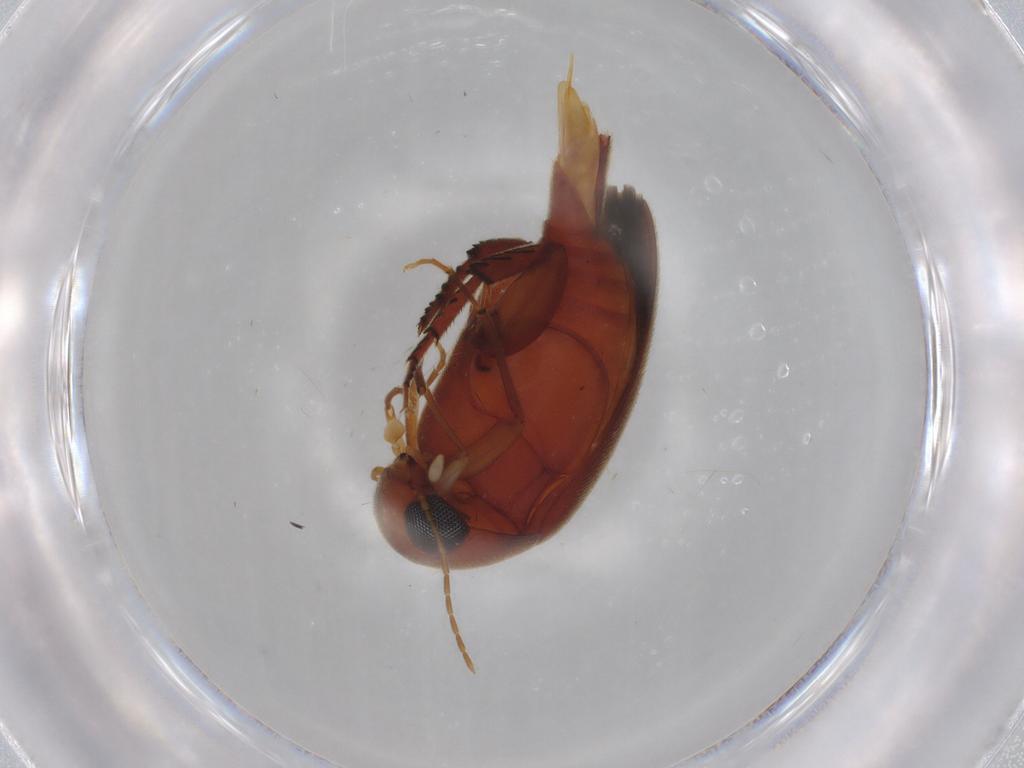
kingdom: Animalia
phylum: Arthropoda
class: Insecta
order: Coleoptera
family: Mordellidae
